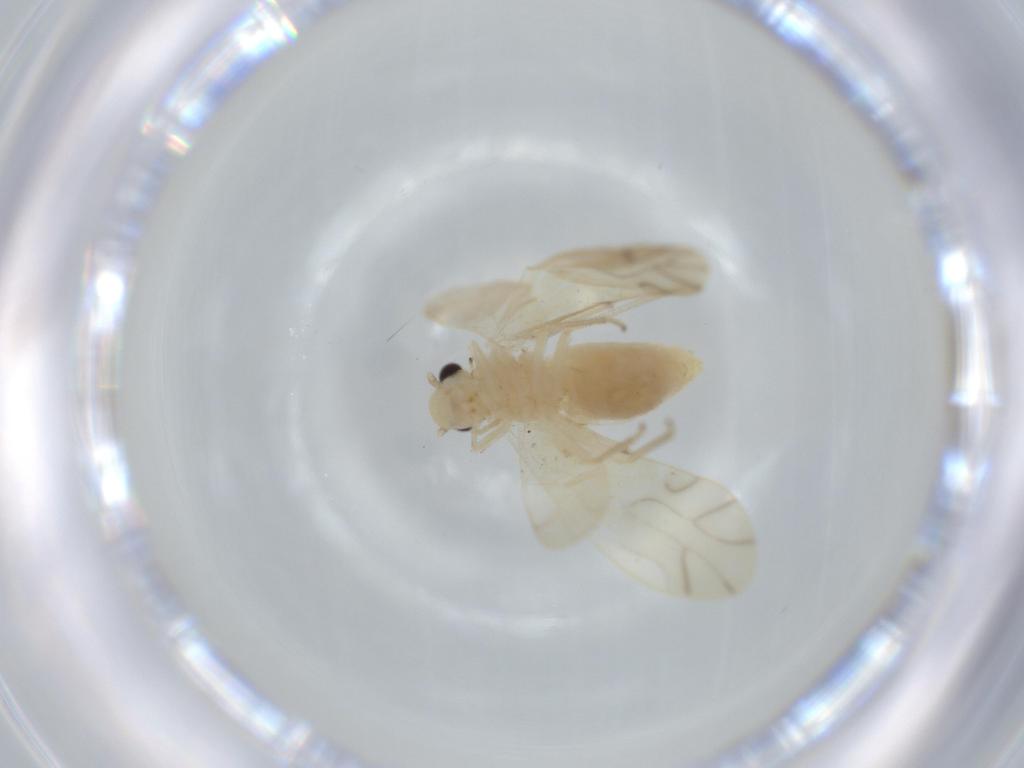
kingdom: Animalia
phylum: Arthropoda
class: Insecta
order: Psocodea
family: Caeciliusidae
